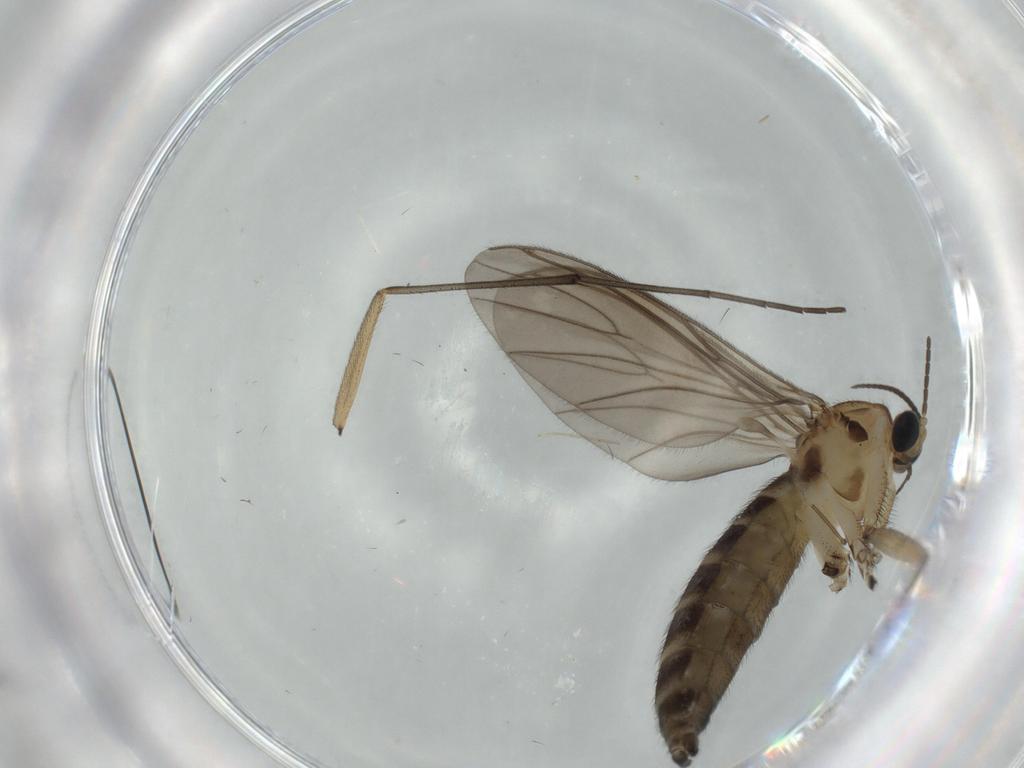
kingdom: Animalia
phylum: Arthropoda
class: Insecta
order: Diptera
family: Sciaridae
